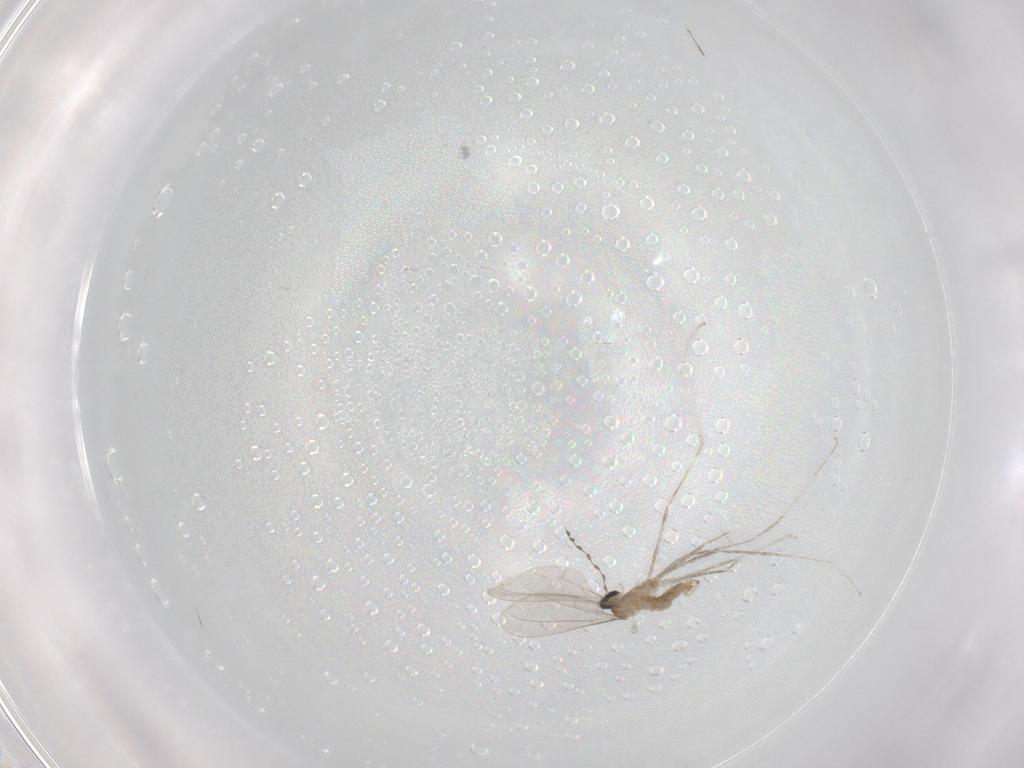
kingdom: Animalia
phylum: Arthropoda
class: Insecta
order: Diptera
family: Cecidomyiidae
